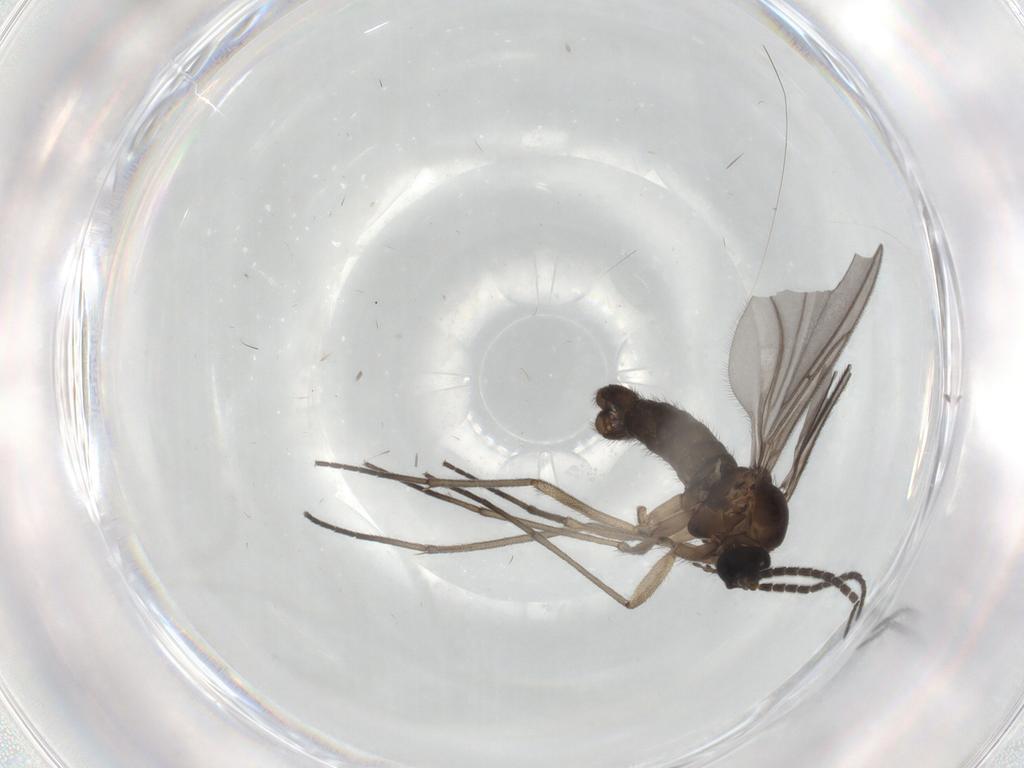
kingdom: Animalia
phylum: Arthropoda
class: Insecta
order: Diptera
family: Sciaridae
